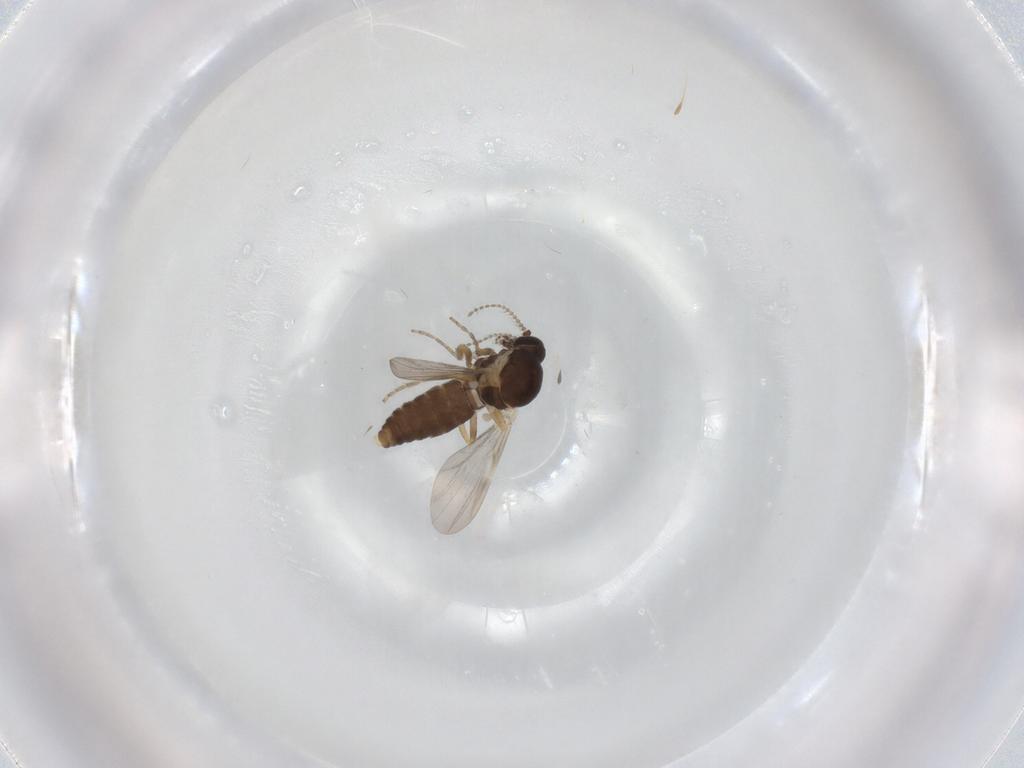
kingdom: Animalia
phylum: Arthropoda
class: Insecta
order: Diptera
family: Ceratopogonidae
